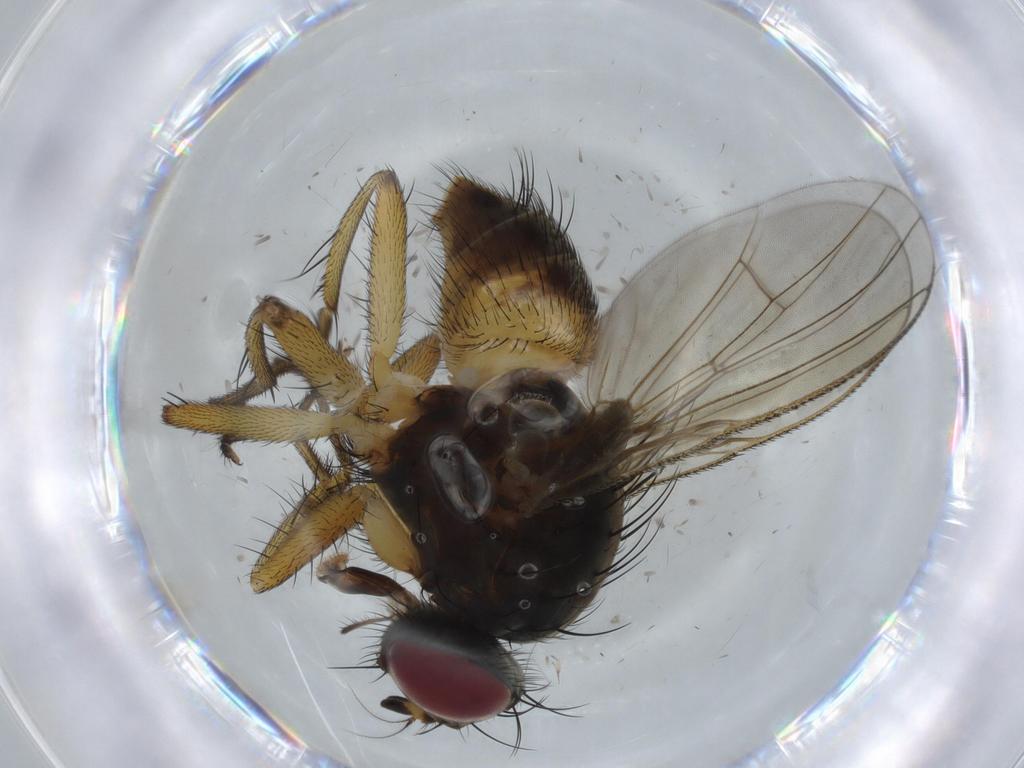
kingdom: Animalia
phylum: Arthropoda
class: Insecta
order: Diptera
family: Muscidae
